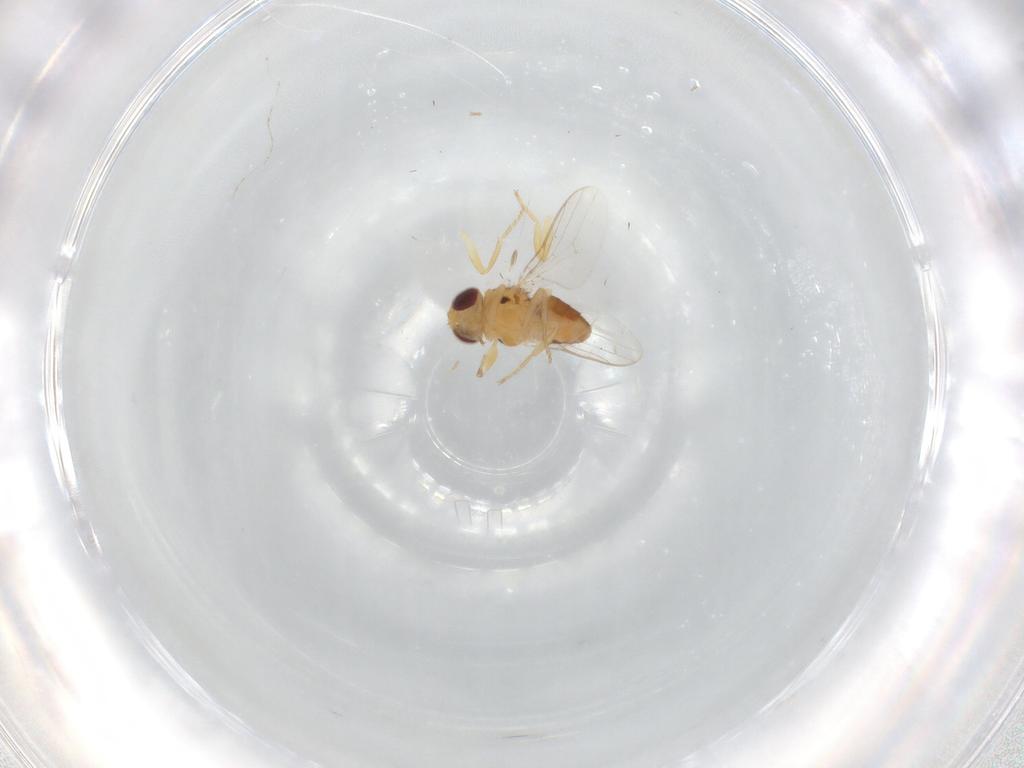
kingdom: Animalia
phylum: Arthropoda
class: Insecta
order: Diptera
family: Chloropidae
